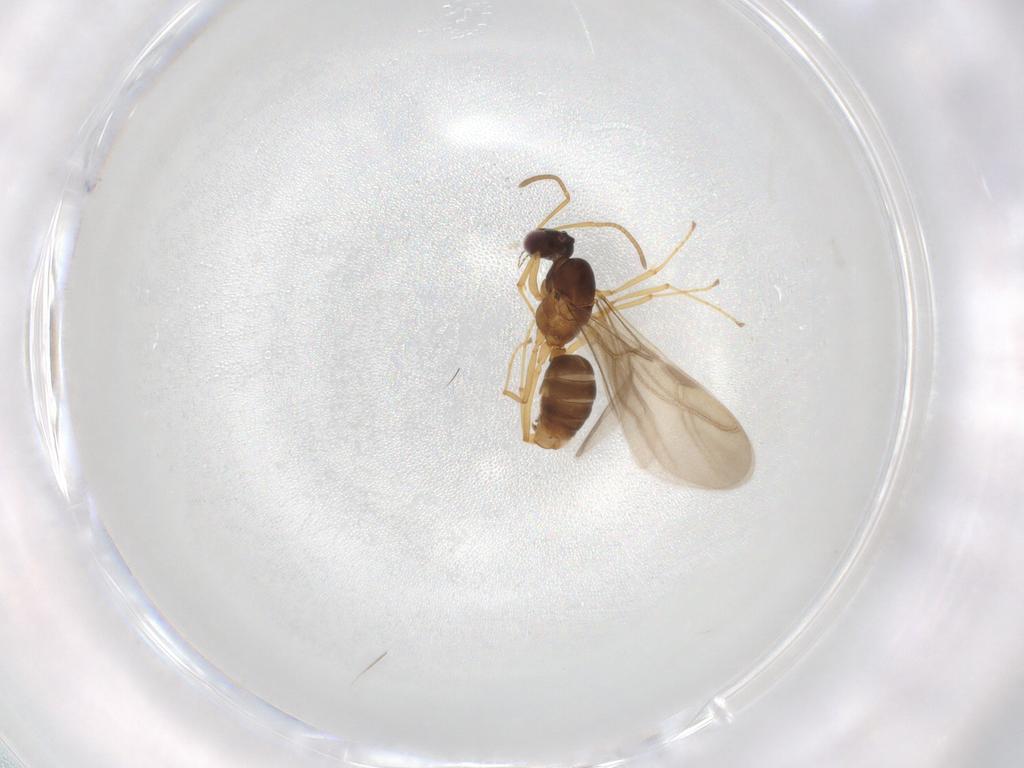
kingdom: Animalia
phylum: Arthropoda
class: Insecta
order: Hymenoptera
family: Formicidae
